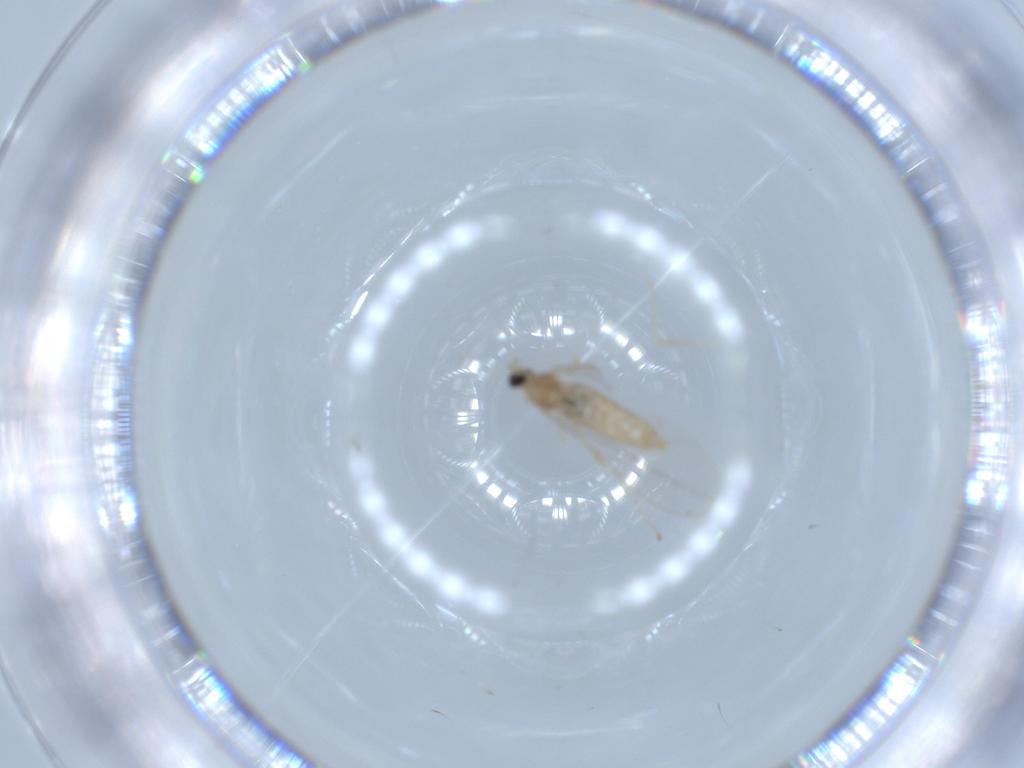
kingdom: Animalia
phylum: Arthropoda
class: Insecta
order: Diptera
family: Cecidomyiidae
